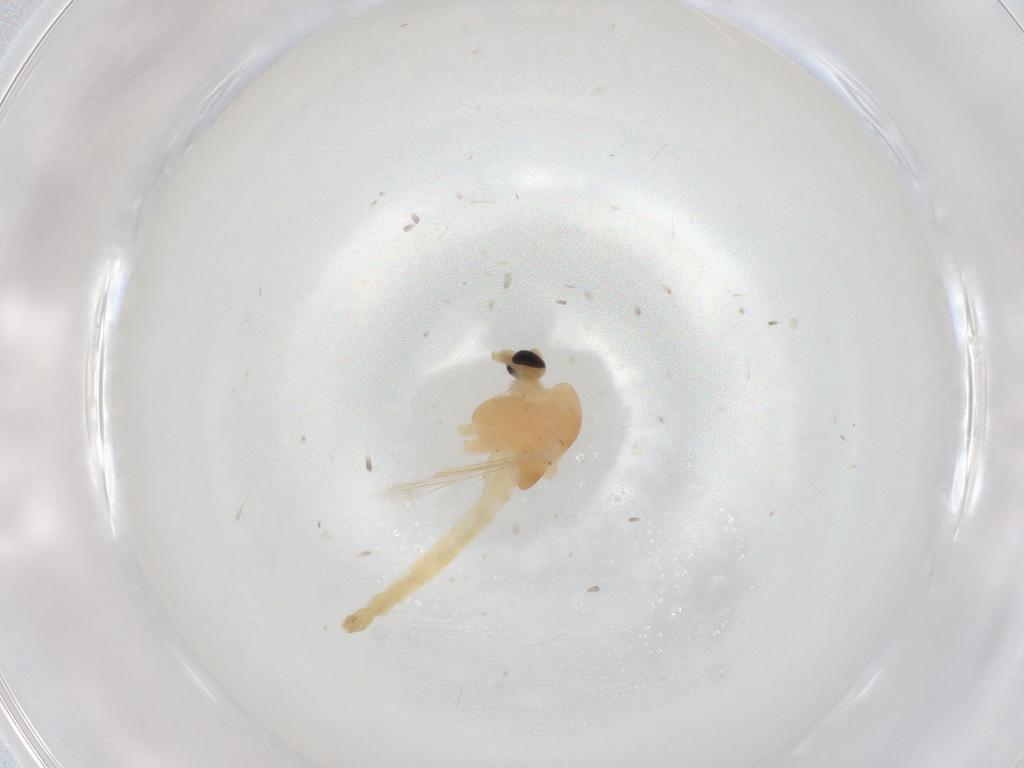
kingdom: Animalia
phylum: Arthropoda
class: Insecta
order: Diptera
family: Chironomidae
